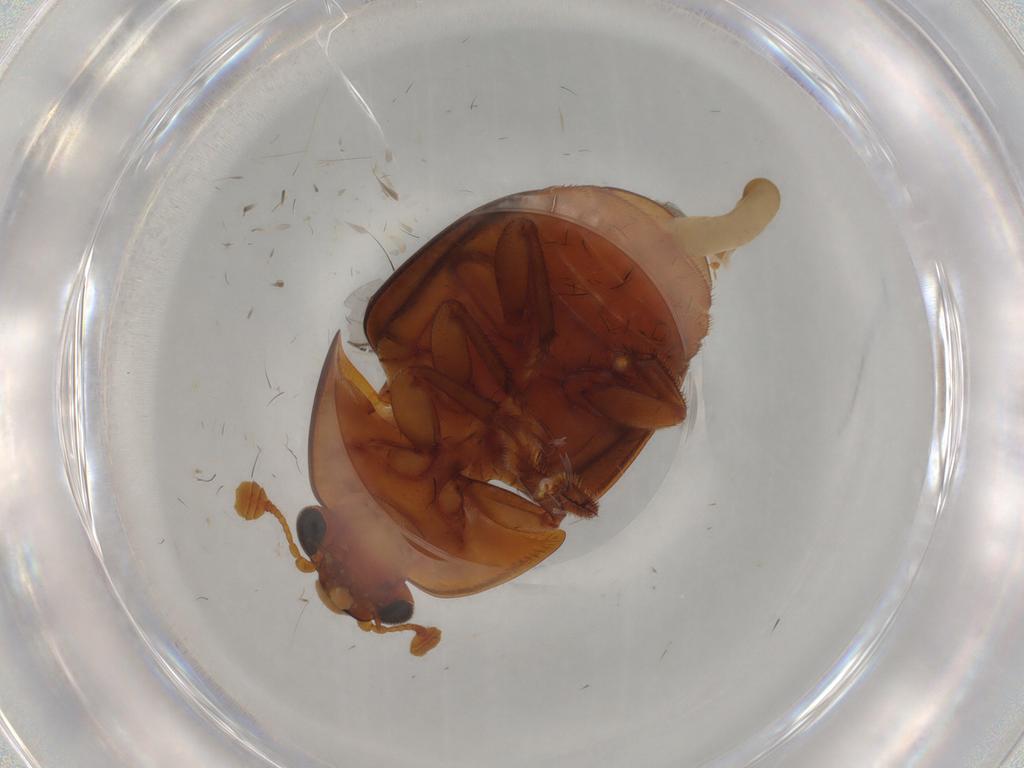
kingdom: Animalia
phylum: Arthropoda
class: Insecta
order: Coleoptera
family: Nitidulidae
